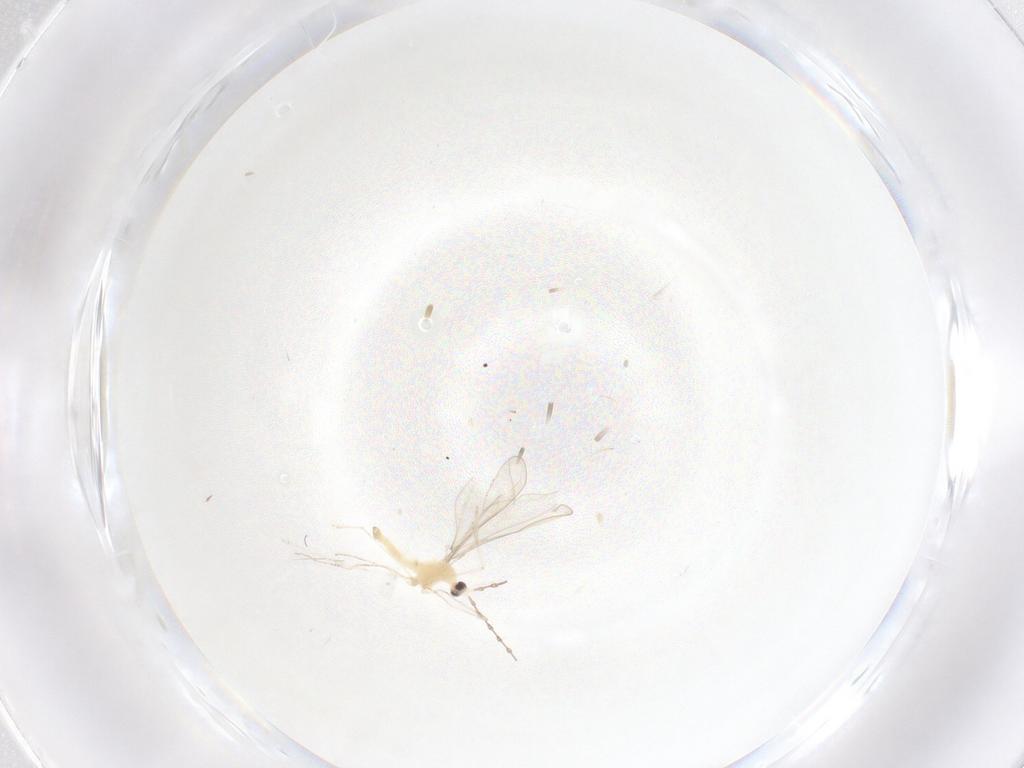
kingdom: Animalia
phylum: Arthropoda
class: Insecta
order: Diptera
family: Cecidomyiidae
